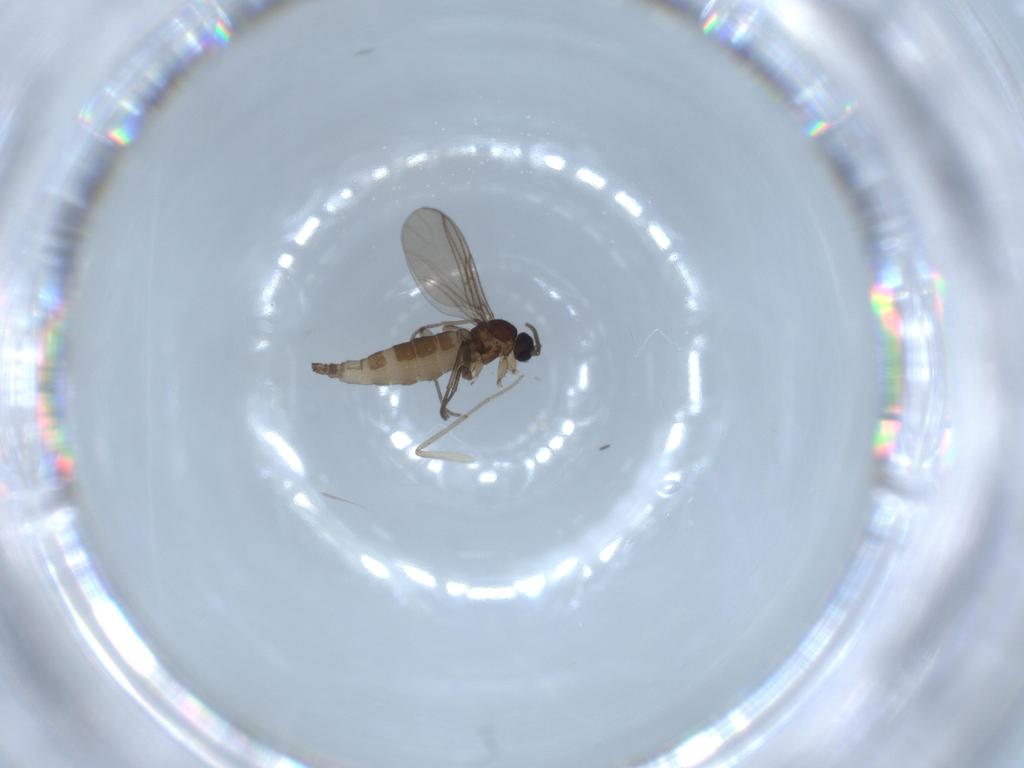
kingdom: Animalia
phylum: Arthropoda
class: Insecta
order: Diptera
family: Chironomidae
